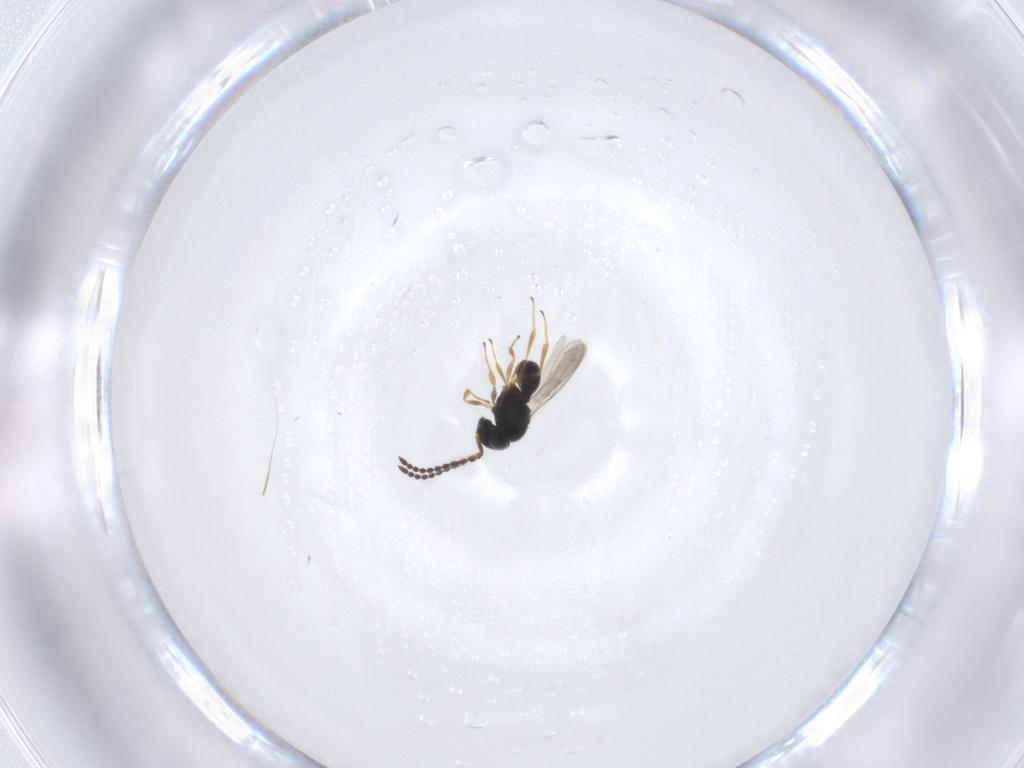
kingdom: Animalia
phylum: Arthropoda
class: Insecta
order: Hymenoptera
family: Scelionidae
